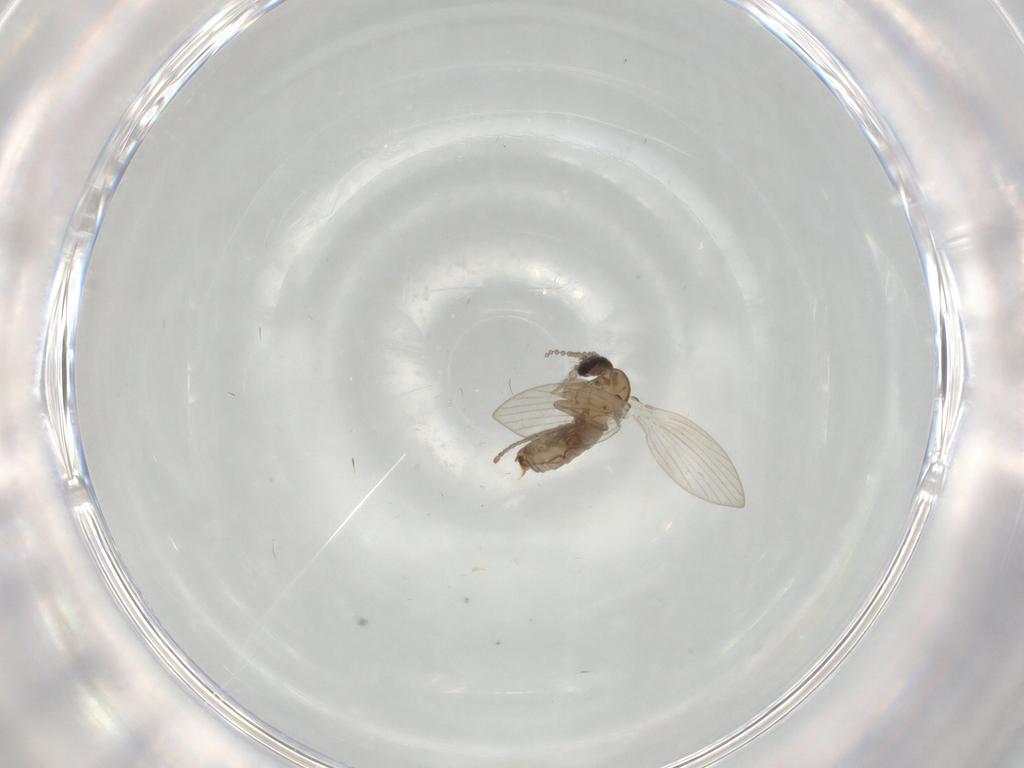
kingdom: Animalia
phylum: Arthropoda
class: Insecta
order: Diptera
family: Psychodidae
